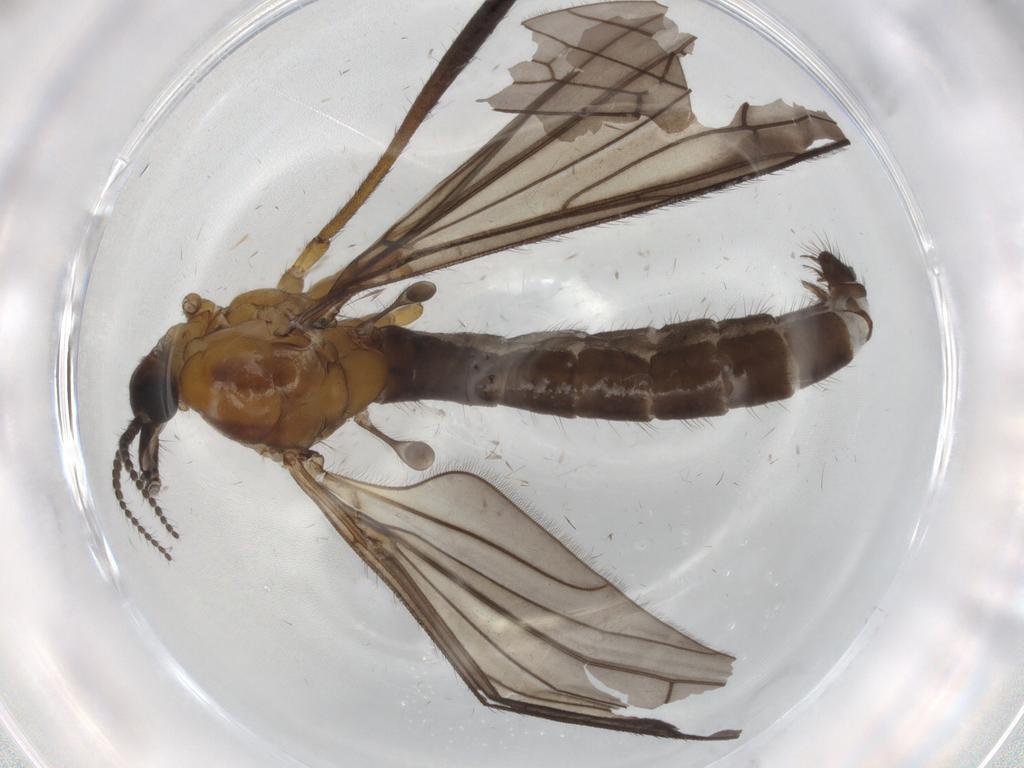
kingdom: Animalia
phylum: Arthropoda
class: Insecta
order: Diptera
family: Limoniidae
